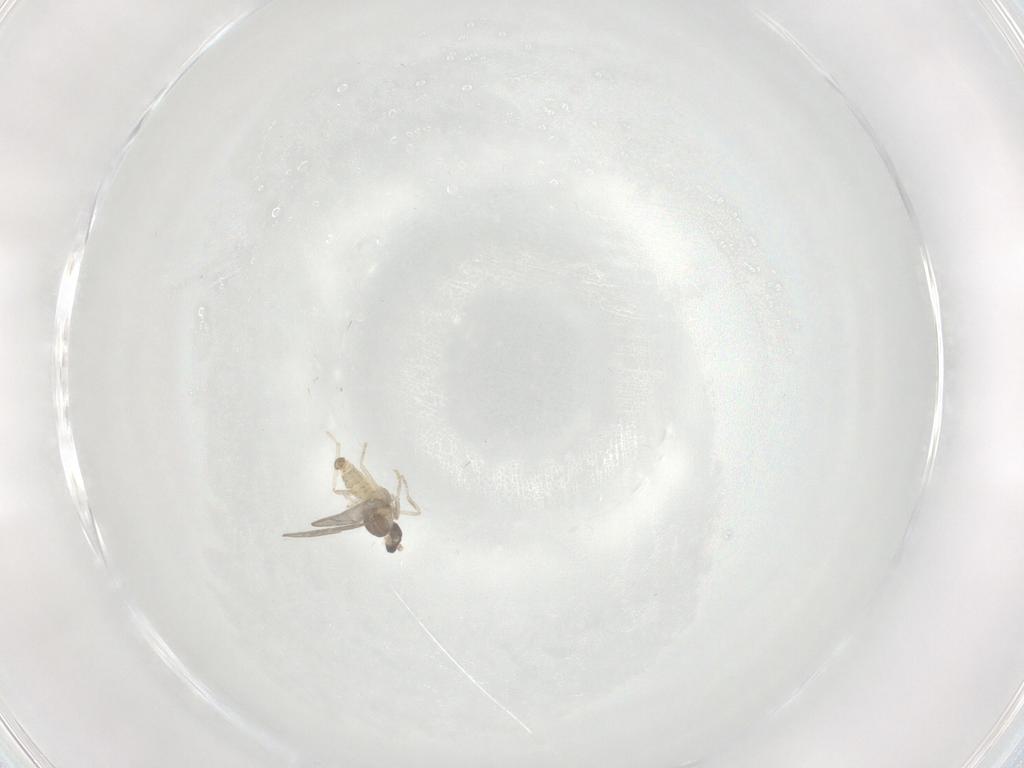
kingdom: Animalia
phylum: Arthropoda
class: Insecta
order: Diptera
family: Cecidomyiidae
